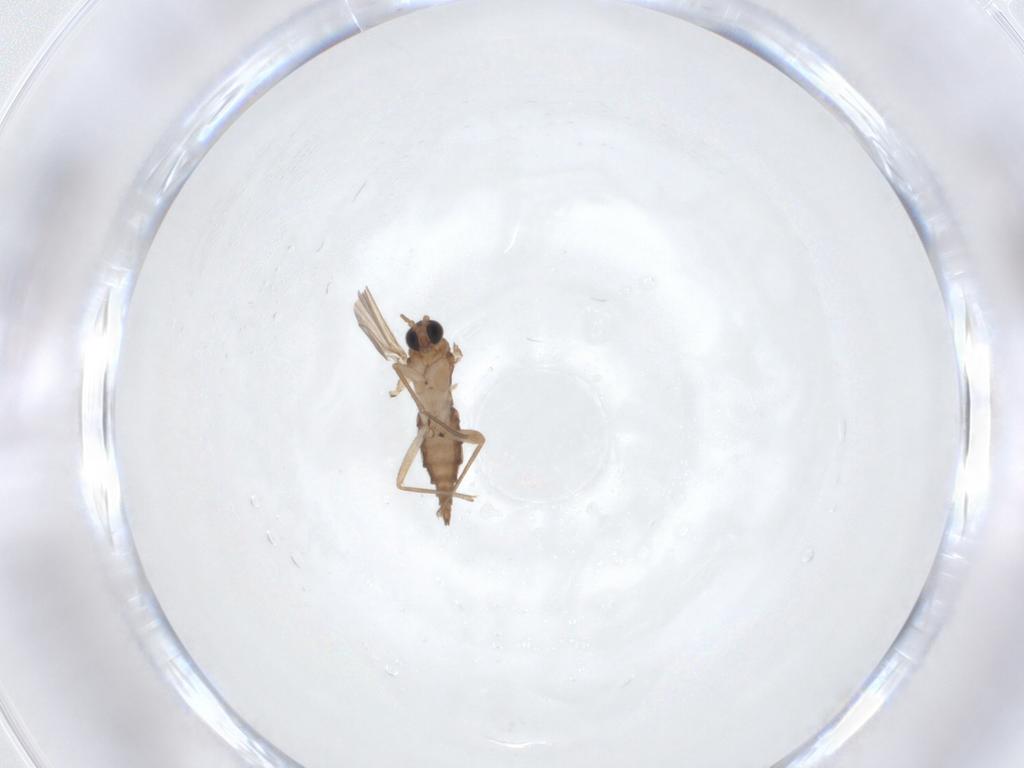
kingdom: Animalia
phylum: Arthropoda
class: Insecta
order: Diptera
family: Sciaridae
